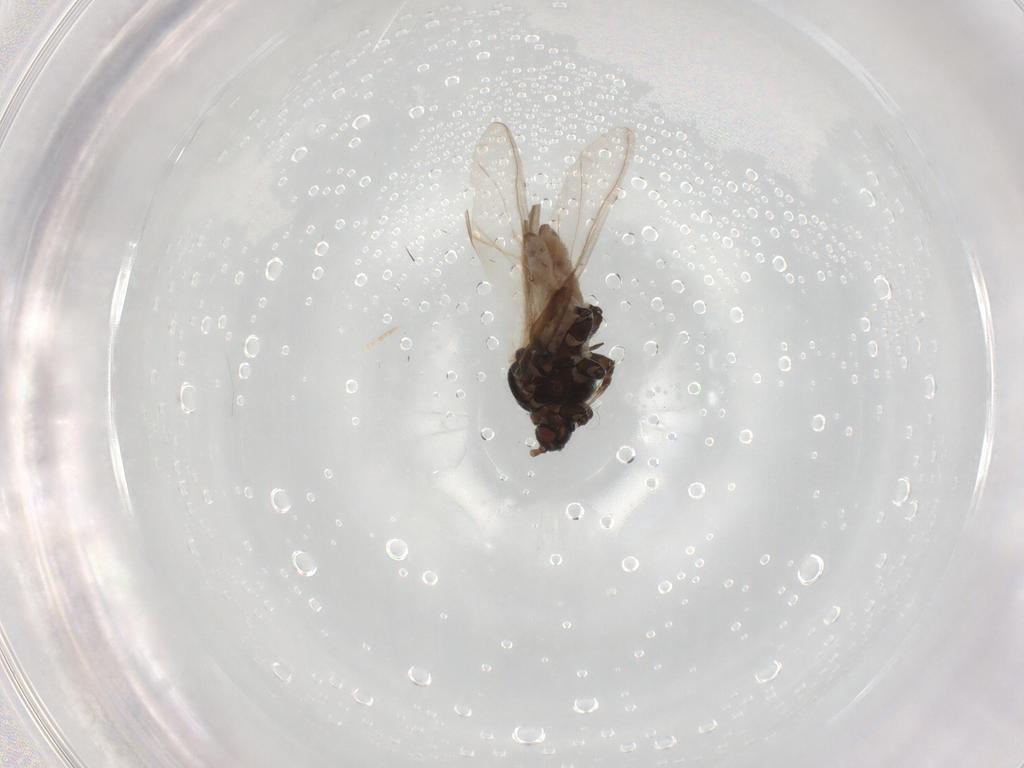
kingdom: Animalia
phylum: Arthropoda
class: Insecta
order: Hemiptera
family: Aphididae
